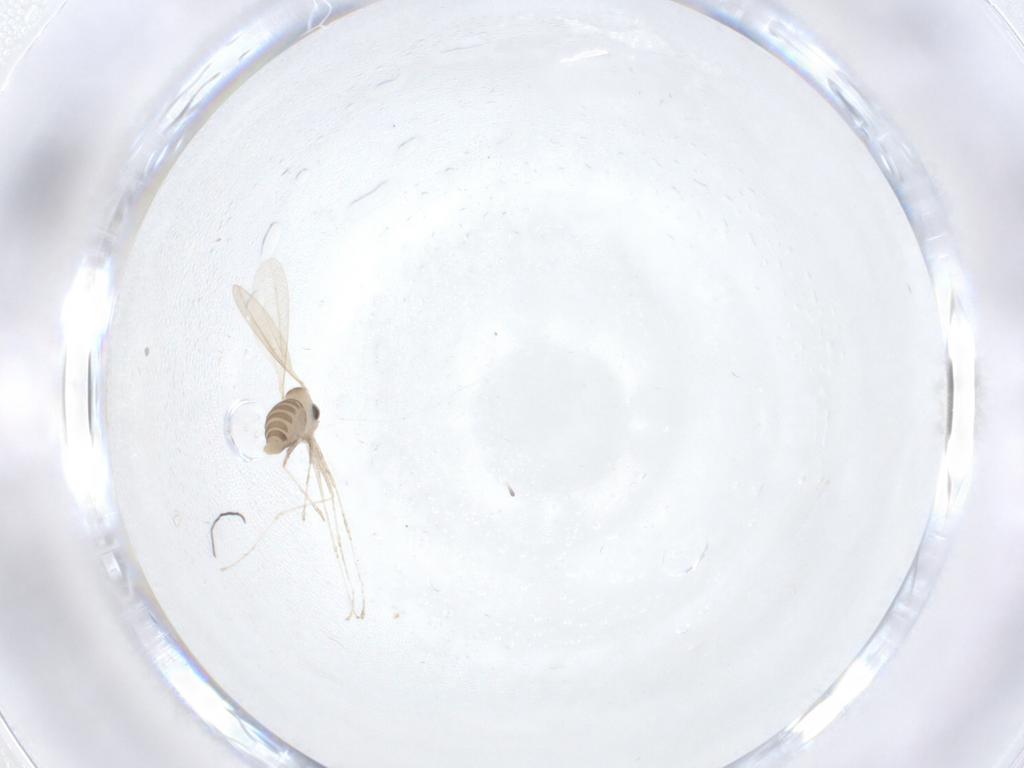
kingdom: Animalia
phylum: Arthropoda
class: Insecta
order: Diptera
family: Cecidomyiidae
